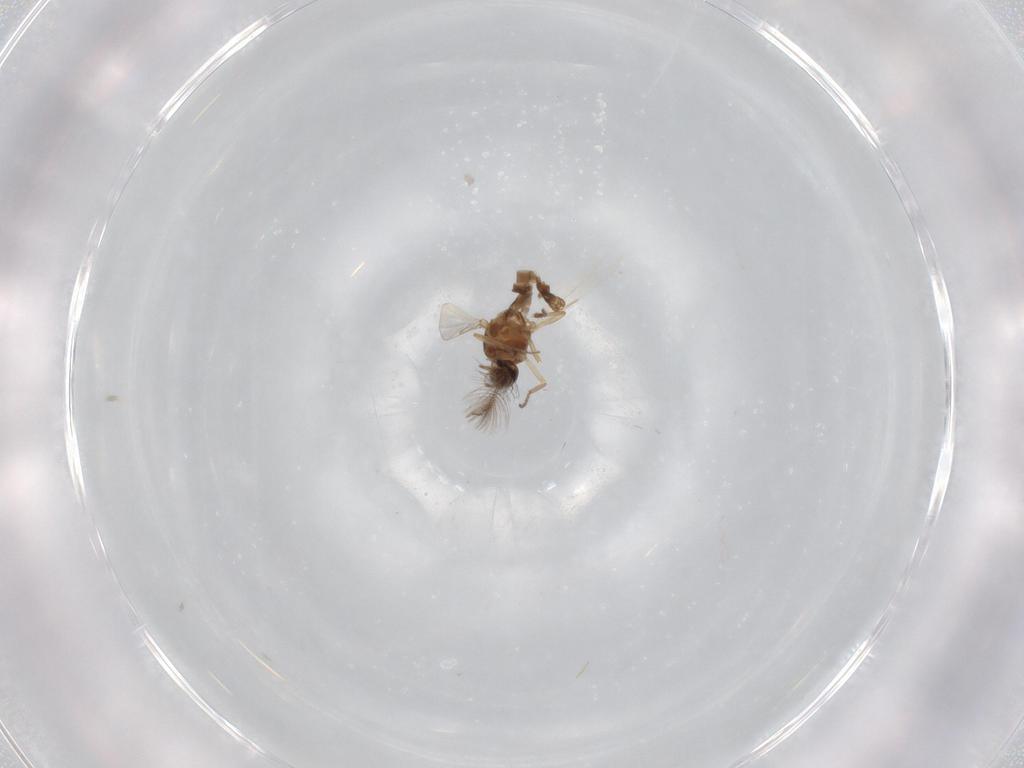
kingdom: Animalia
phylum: Arthropoda
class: Insecta
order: Diptera
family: Ceratopogonidae
